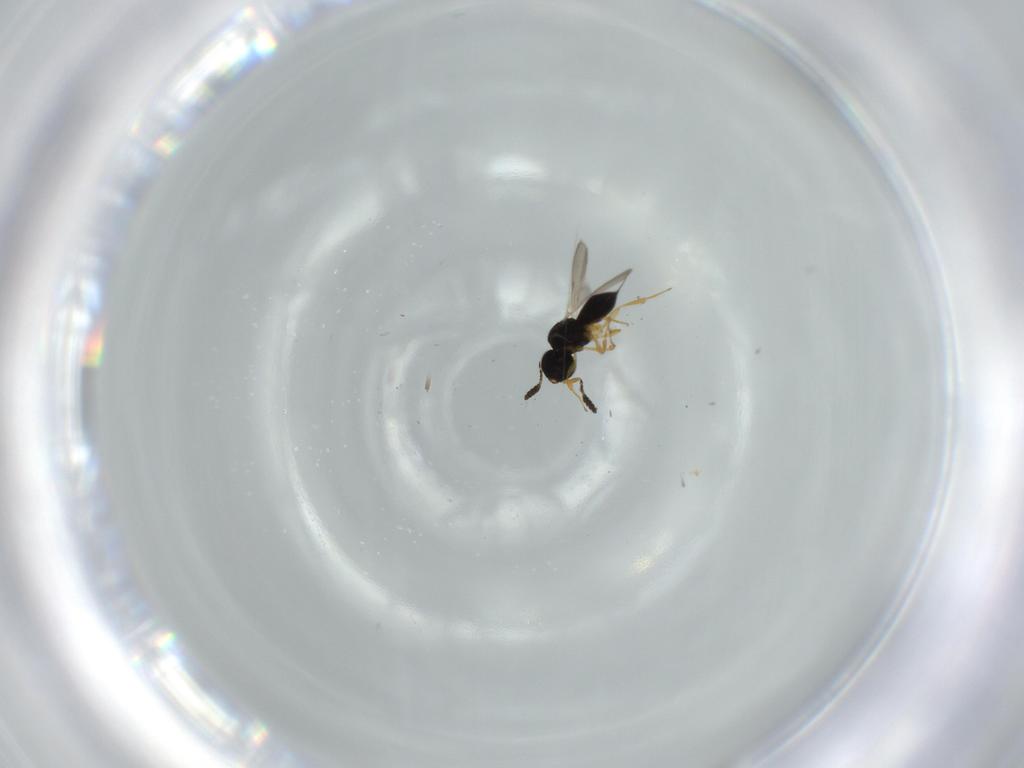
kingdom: Animalia
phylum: Arthropoda
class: Insecta
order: Hymenoptera
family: Scelionidae
